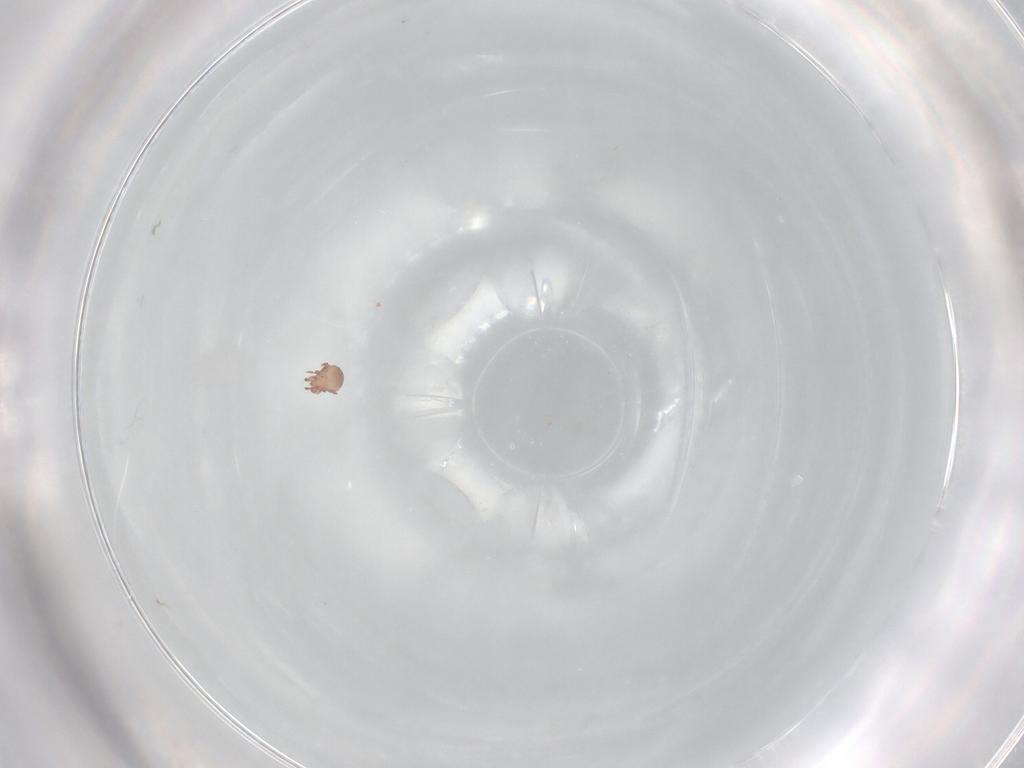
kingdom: Animalia
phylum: Arthropoda
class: Arachnida
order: Sarcoptiformes
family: Eremaeidae
